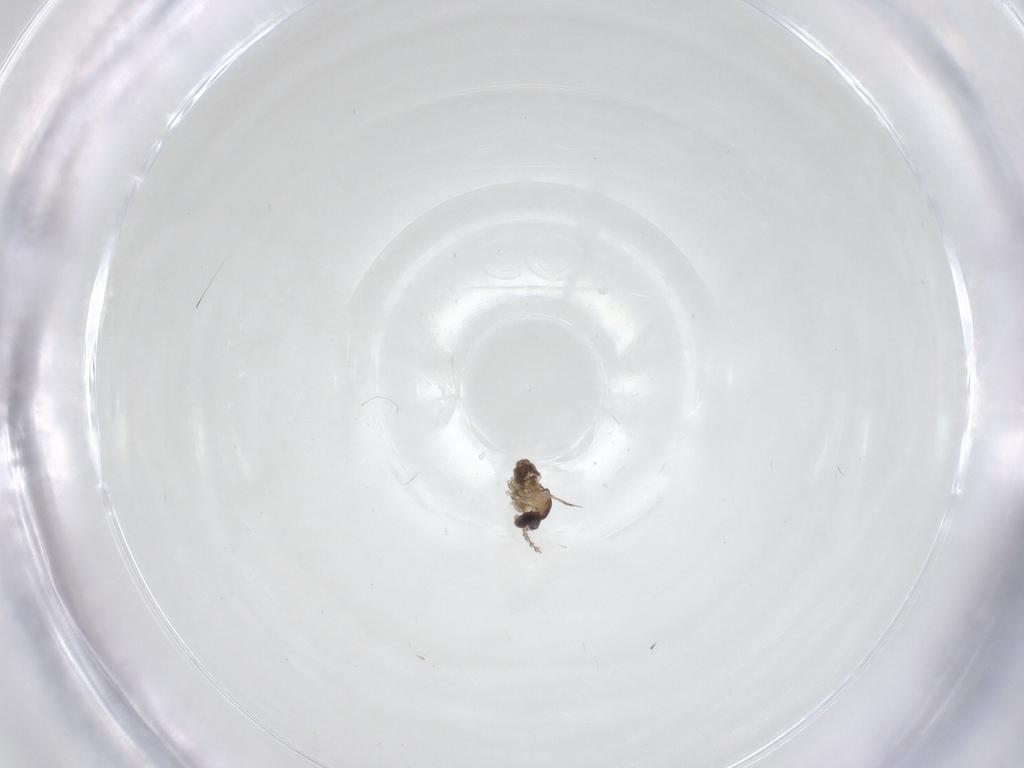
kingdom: Animalia
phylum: Arthropoda
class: Insecta
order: Diptera
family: Cecidomyiidae
